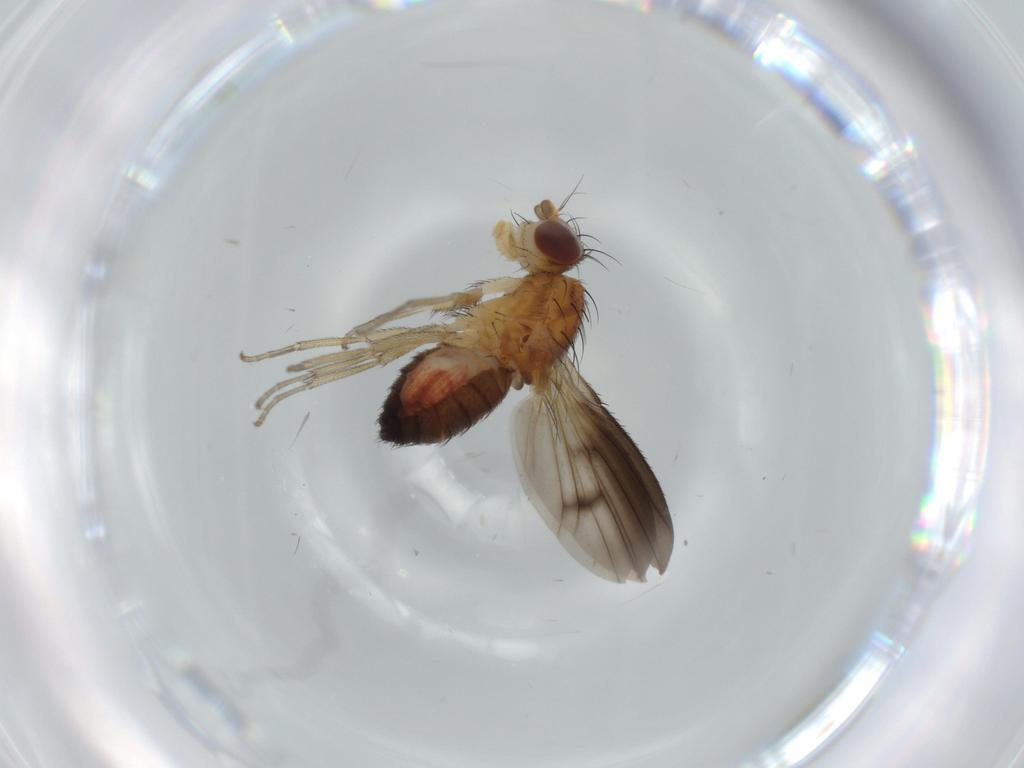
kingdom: Animalia
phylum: Arthropoda
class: Insecta
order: Diptera
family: Heleomyzidae
